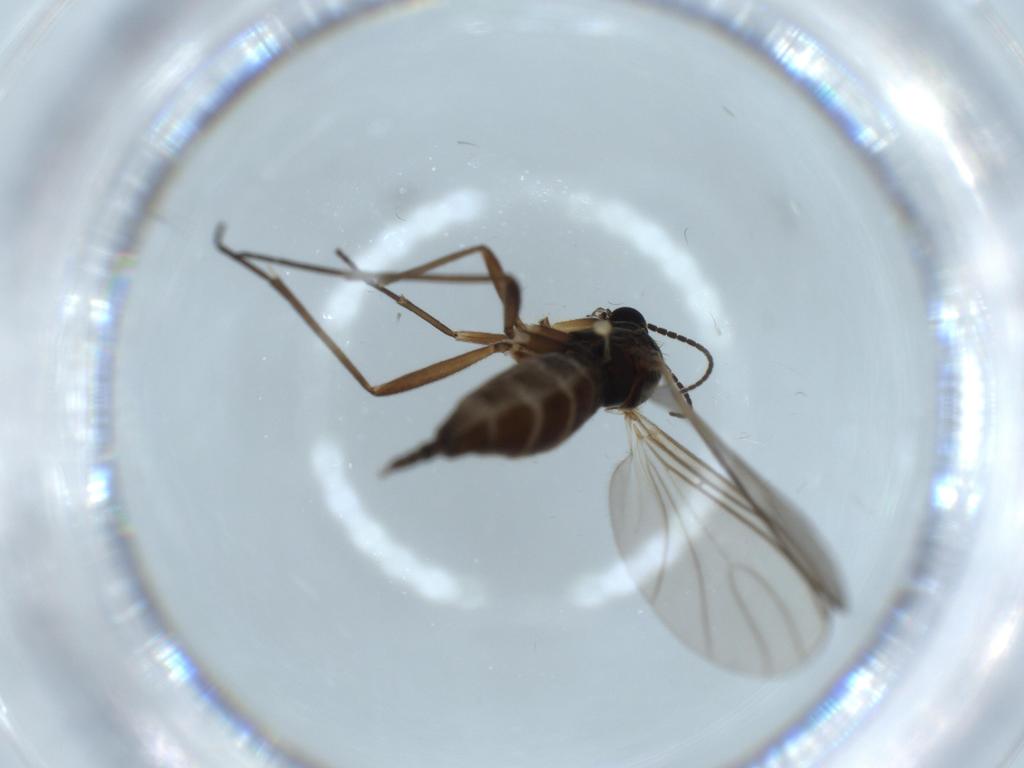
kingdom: Animalia
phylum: Arthropoda
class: Insecta
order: Diptera
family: Sciaridae
